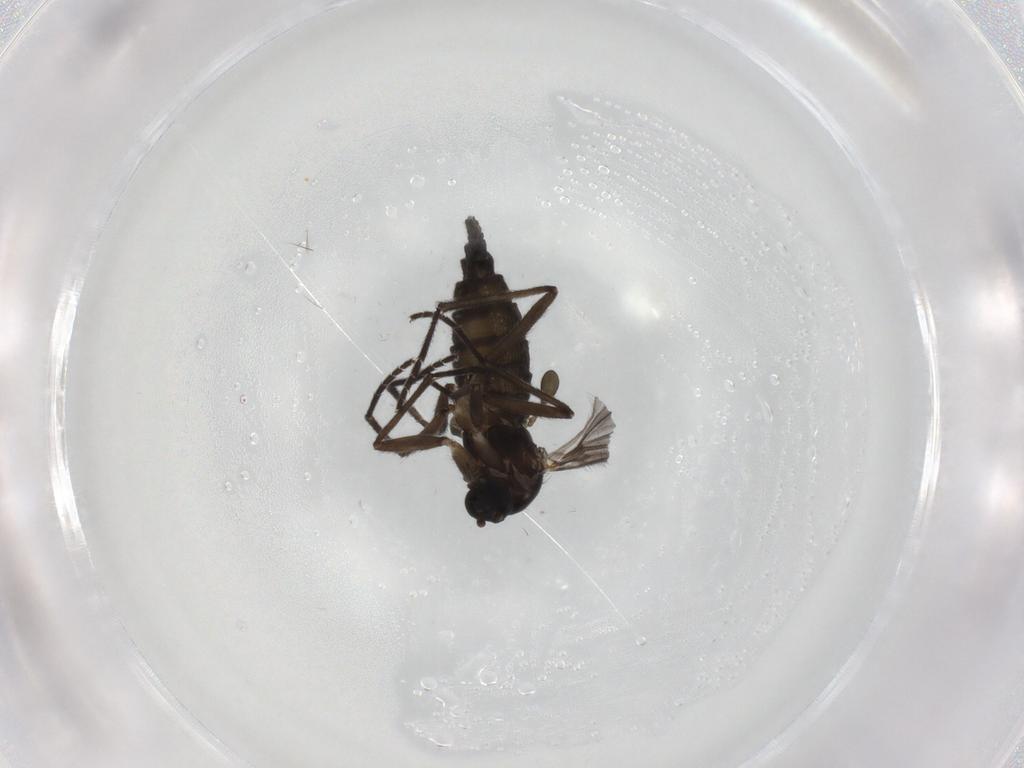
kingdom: Animalia
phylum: Arthropoda
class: Insecta
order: Diptera
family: Sciaridae
